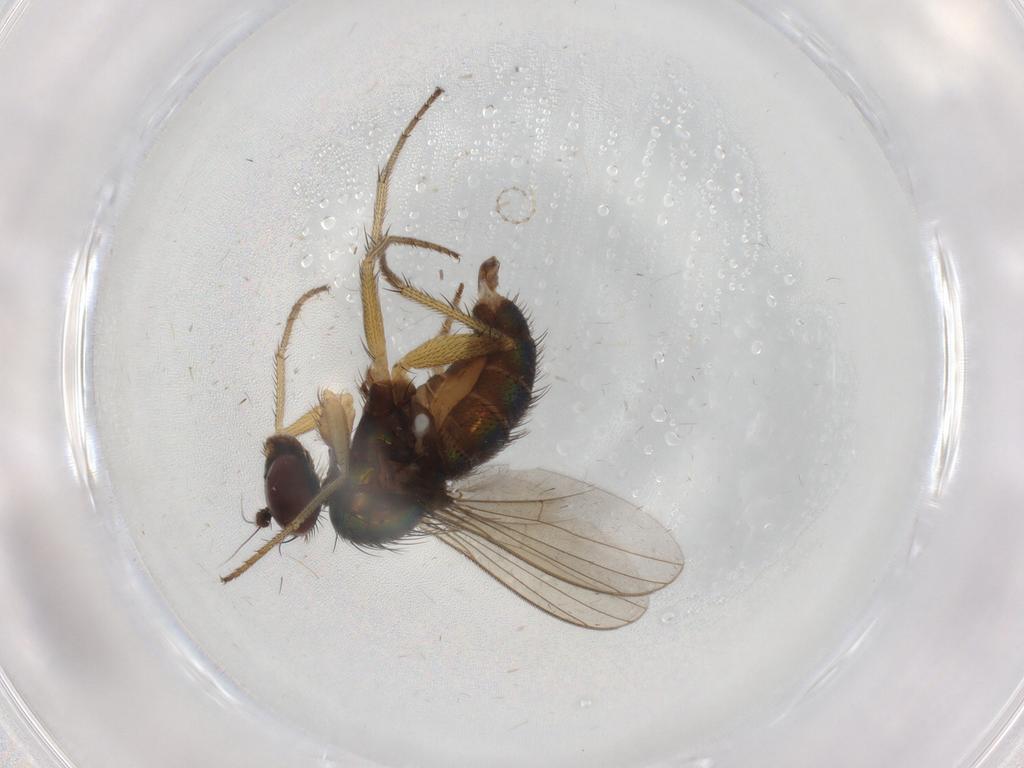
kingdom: Animalia
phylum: Arthropoda
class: Insecta
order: Diptera
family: Dolichopodidae
